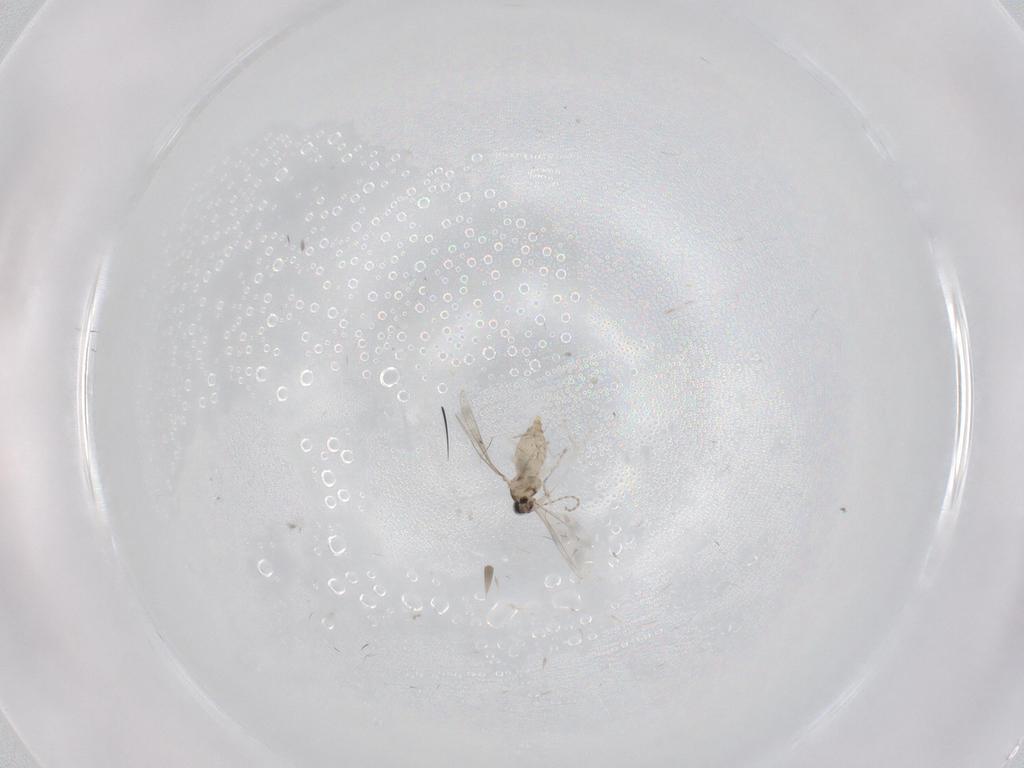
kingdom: Animalia
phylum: Arthropoda
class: Insecta
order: Diptera
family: Cecidomyiidae
